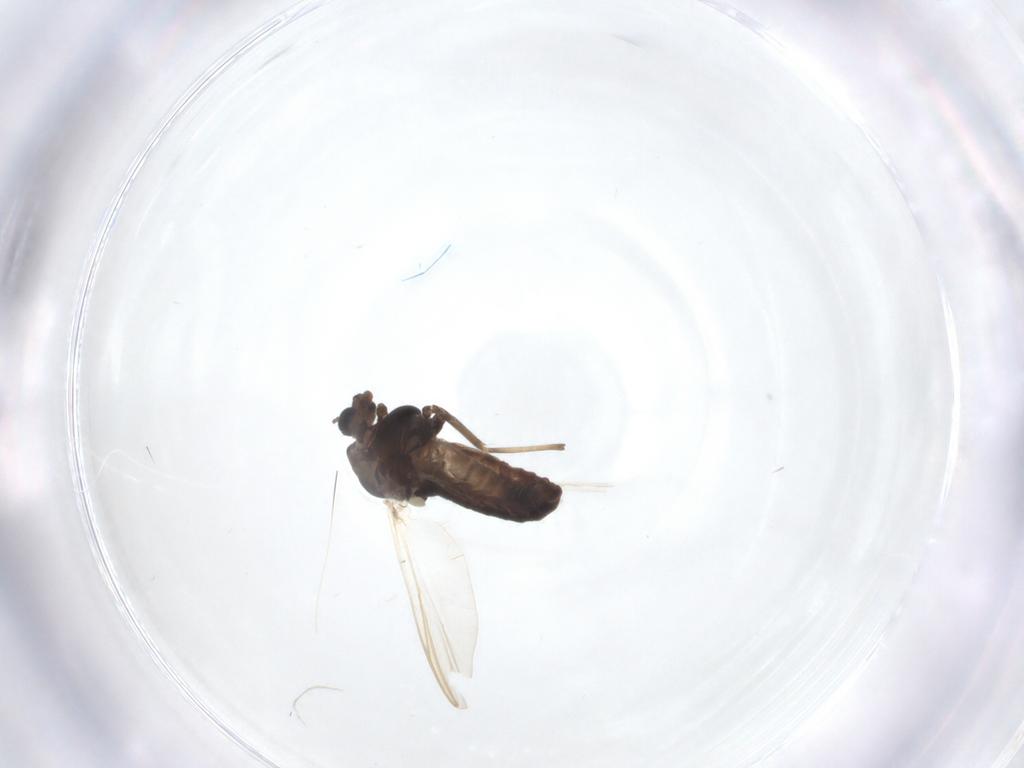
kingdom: Animalia
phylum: Arthropoda
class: Insecta
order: Diptera
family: Chironomidae
